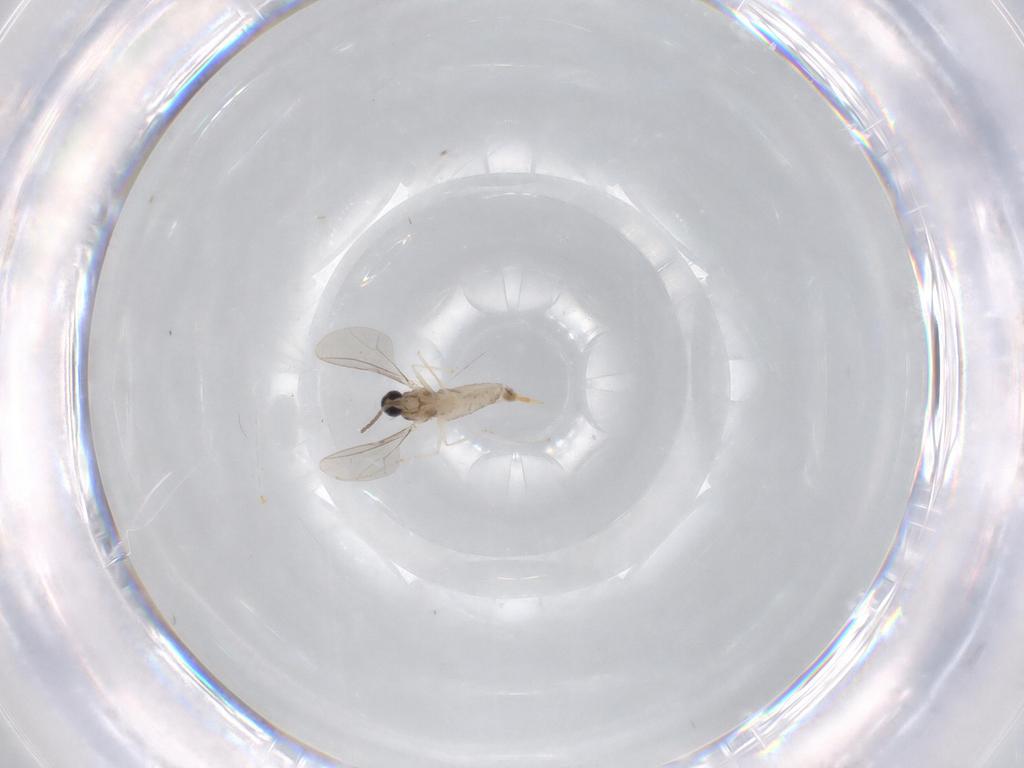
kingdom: Animalia
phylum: Arthropoda
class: Insecta
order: Diptera
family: Cecidomyiidae
